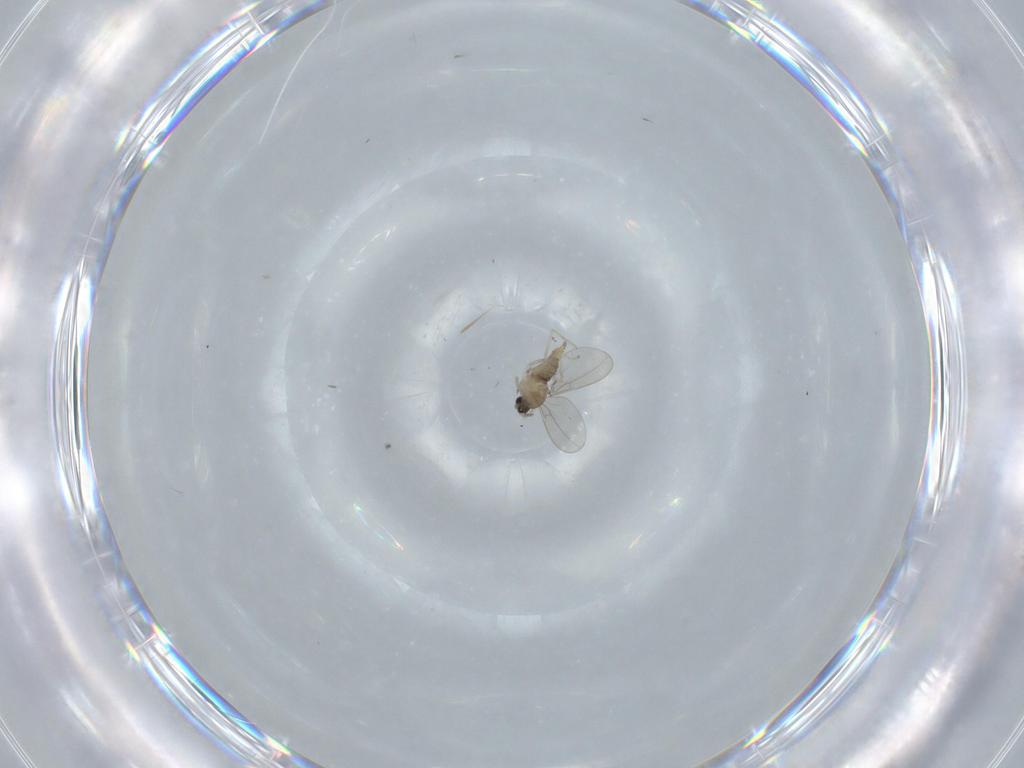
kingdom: Animalia
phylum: Arthropoda
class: Insecta
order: Diptera
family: Cecidomyiidae
